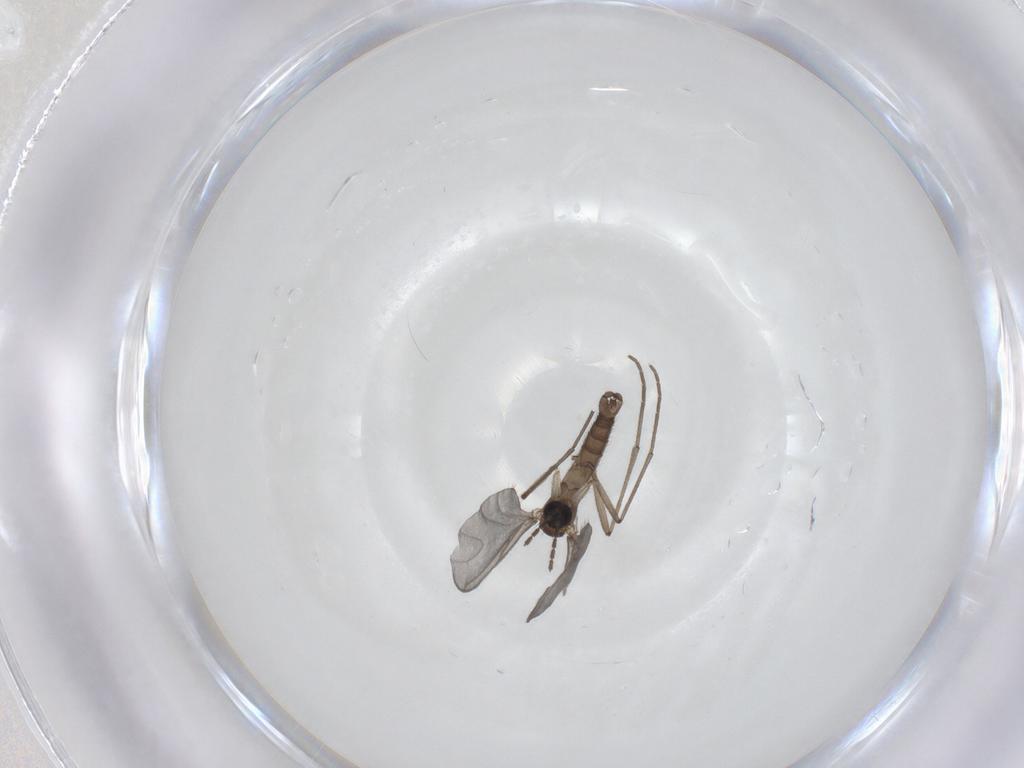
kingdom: Animalia
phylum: Arthropoda
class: Insecta
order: Diptera
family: Sciaridae
